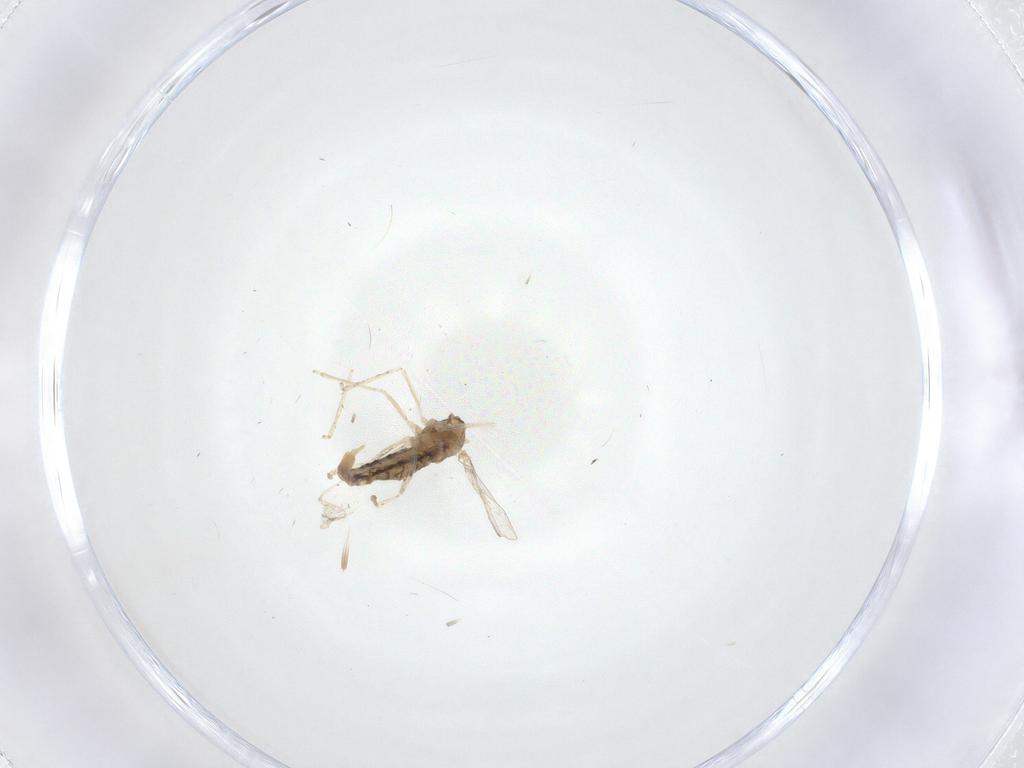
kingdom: Animalia
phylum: Arthropoda
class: Insecta
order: Diptera
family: Cecidomyiidae
